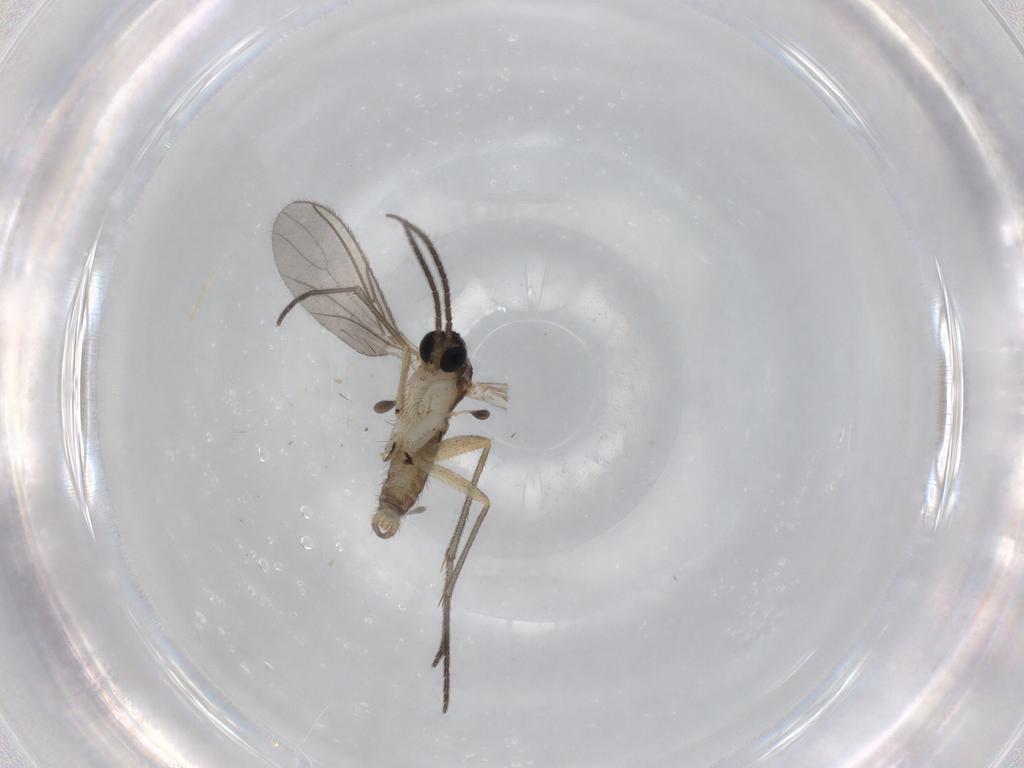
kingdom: Animalia
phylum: Arthropoda
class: Insecta
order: Diptera
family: Sciaridae
